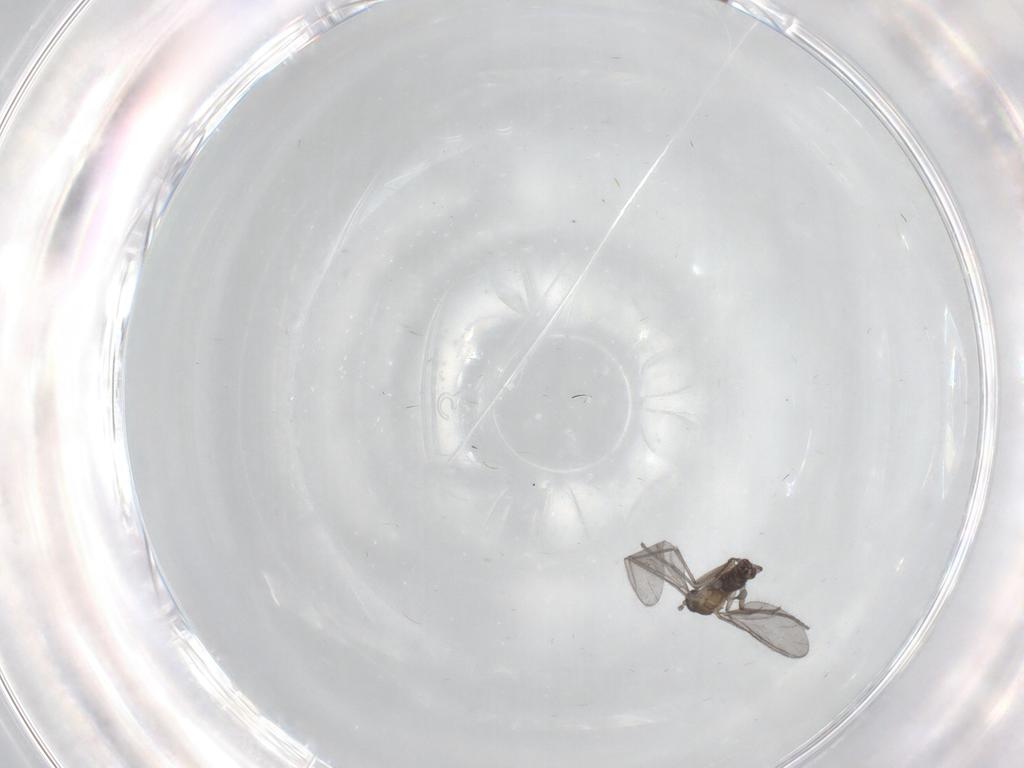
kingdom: Animalia
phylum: Arthropoda
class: Insecta
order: Diptera
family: Sciaridae
